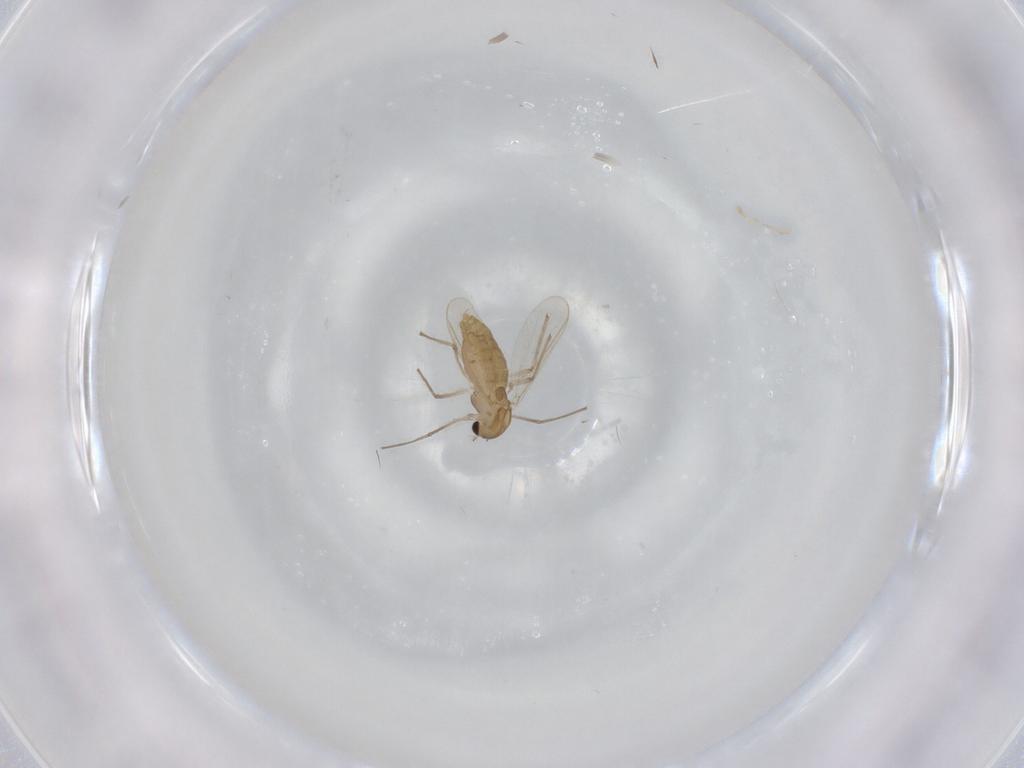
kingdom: Animalia
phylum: Arthropoda
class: Insecta
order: Diptera
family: Chironomidae
